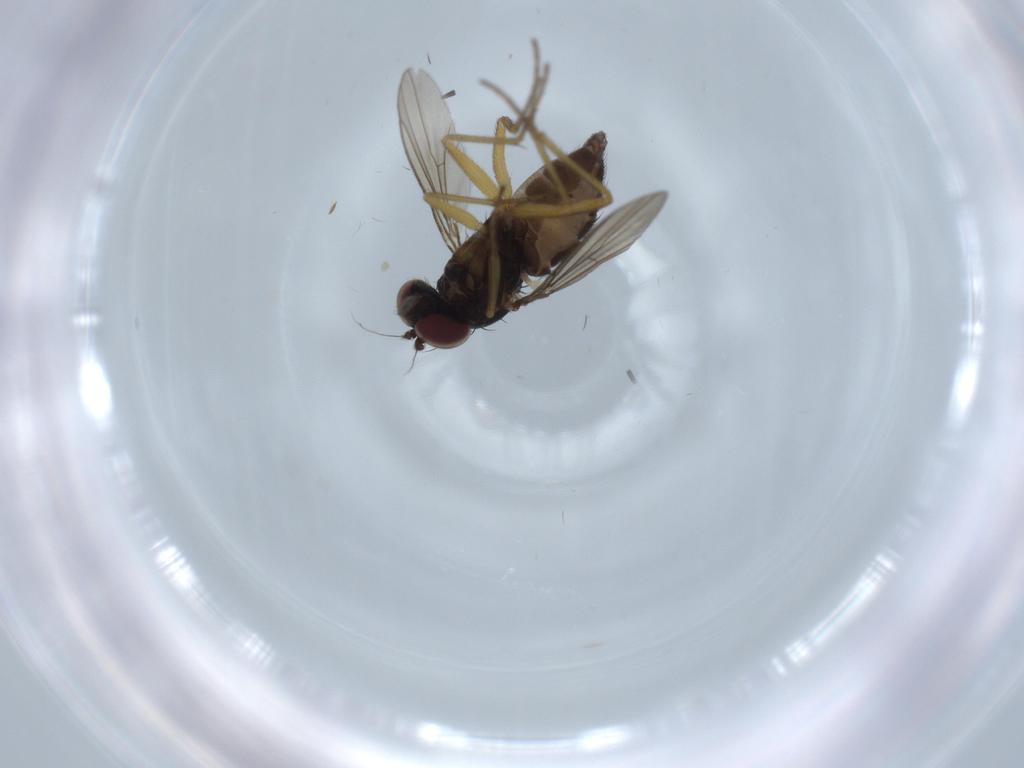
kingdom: Animalia
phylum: Arthropoda
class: Insecta
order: Diptera
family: Dolichopodidae
